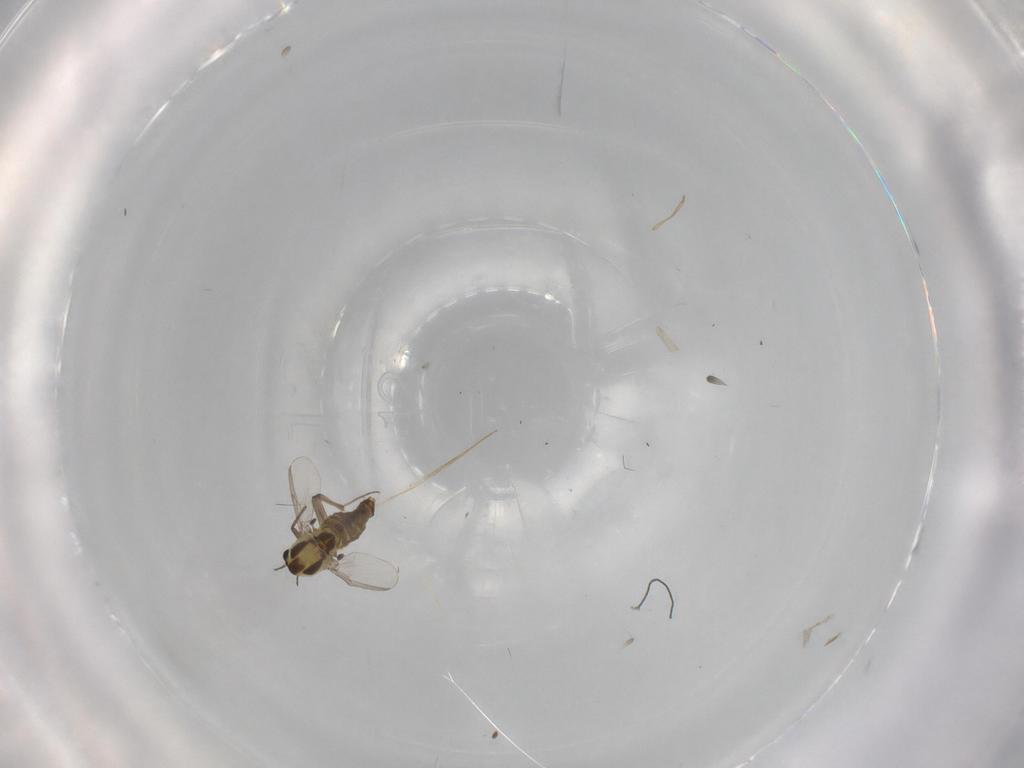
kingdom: Animalia
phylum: Arthropoda
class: Insecta
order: Diptera
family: Chironomidae
